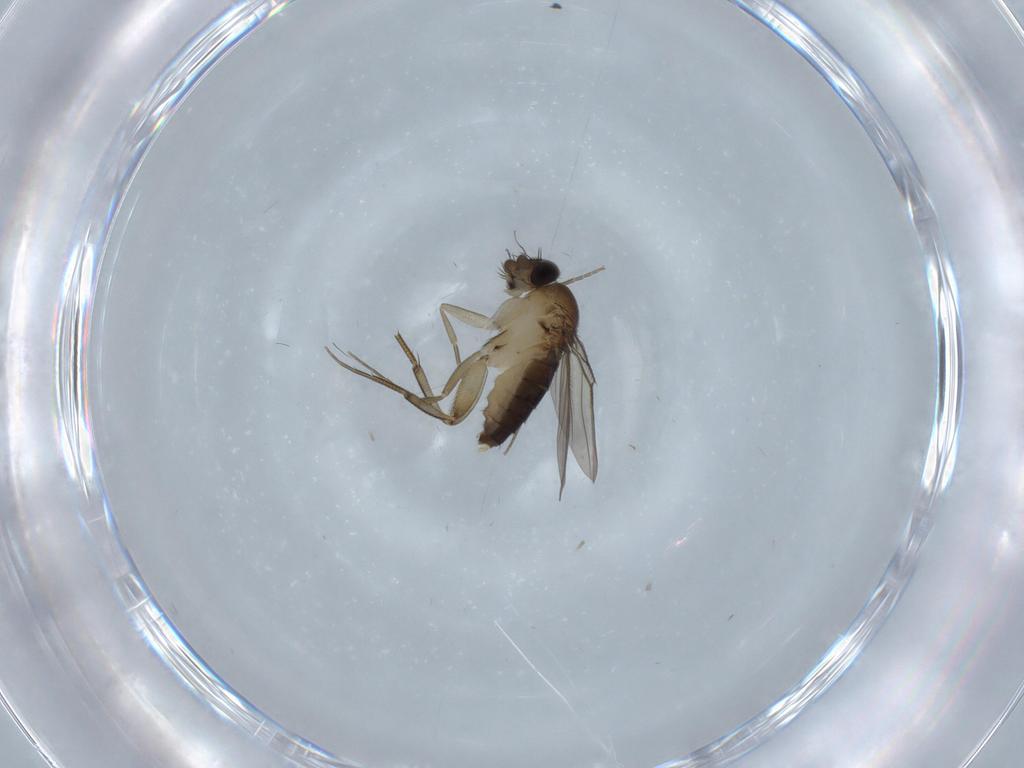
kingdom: Animalia
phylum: Arthropoda
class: Insecta
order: Diptera
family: Phoridae
